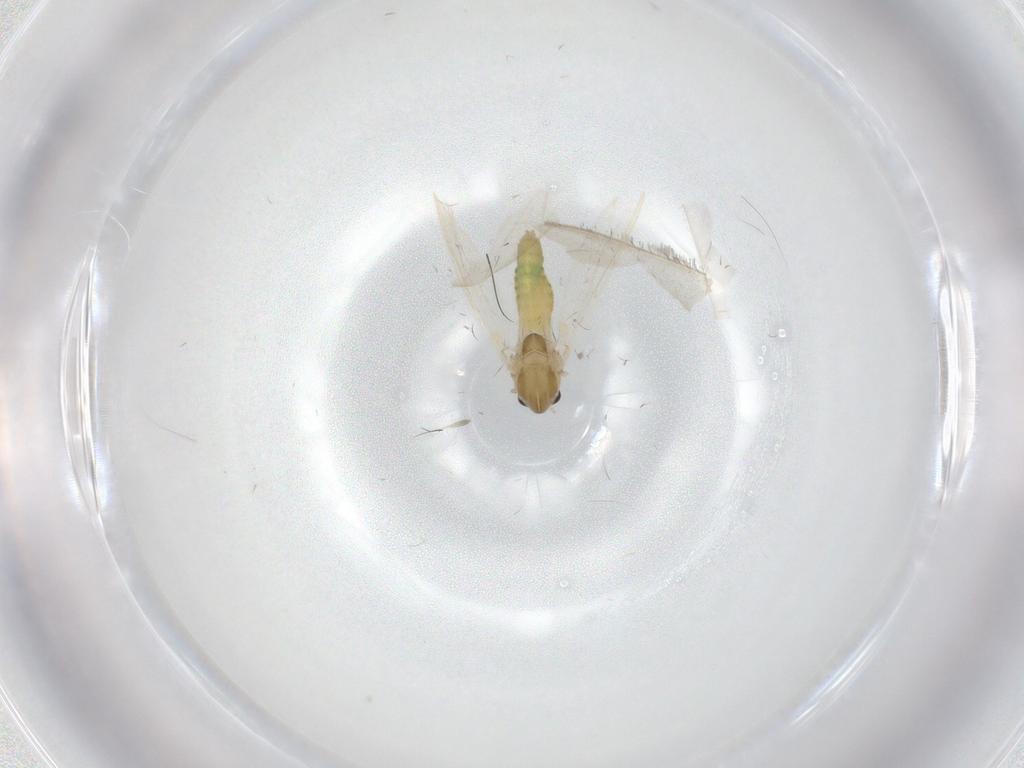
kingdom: Animalia
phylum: Arthropoda
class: Insecta
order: Diptera
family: Chironomidae
